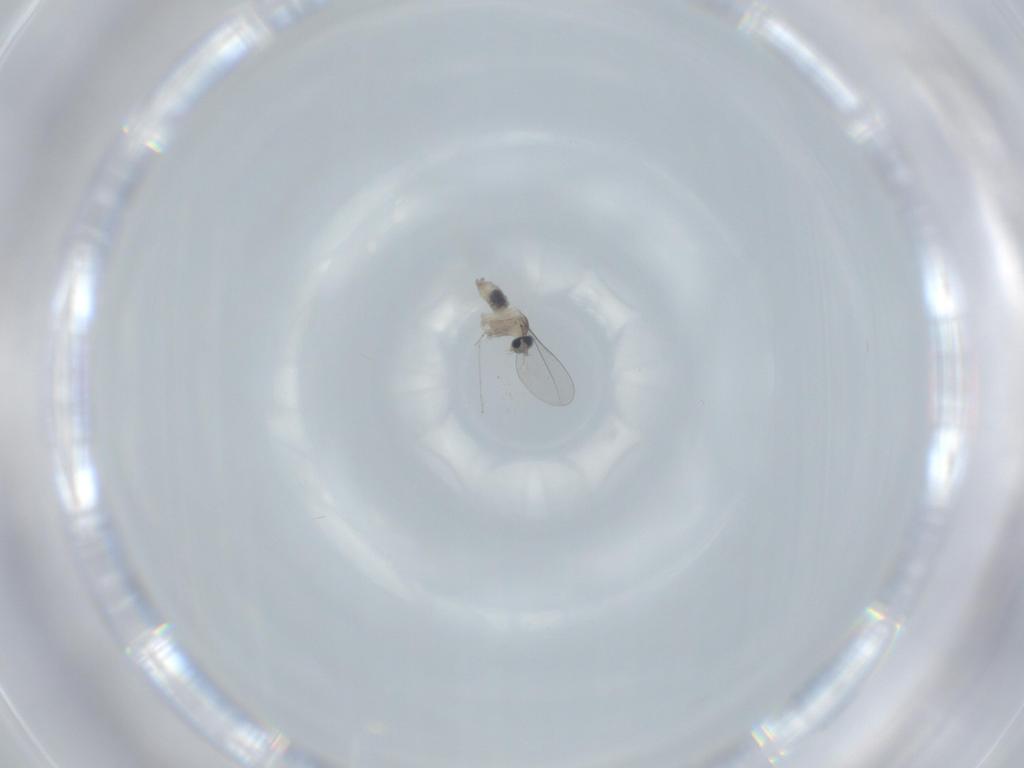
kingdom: Animalia
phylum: Arthropoda
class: Insecta
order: Diptera
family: Cecidomyiidae
